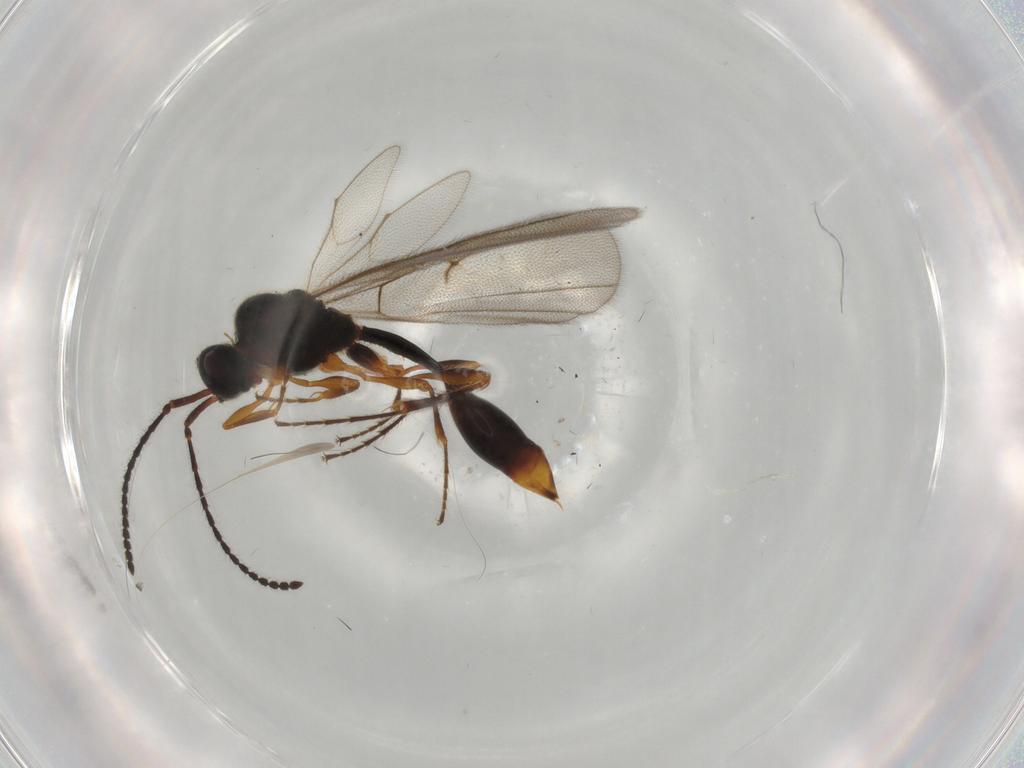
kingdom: Animalia
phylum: Arthropoda
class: Insecta
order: Hymenoptera
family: Diapriidae
